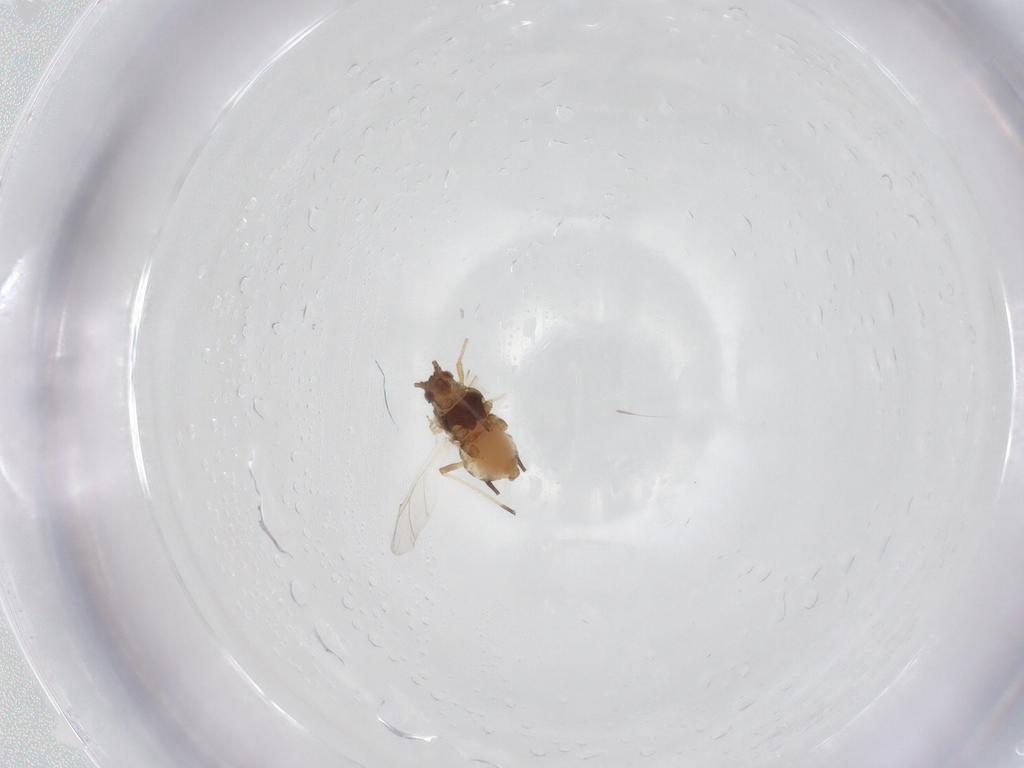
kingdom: Animalia
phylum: Arthropoda
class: Insecta
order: Hemiptera
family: Aphididae
